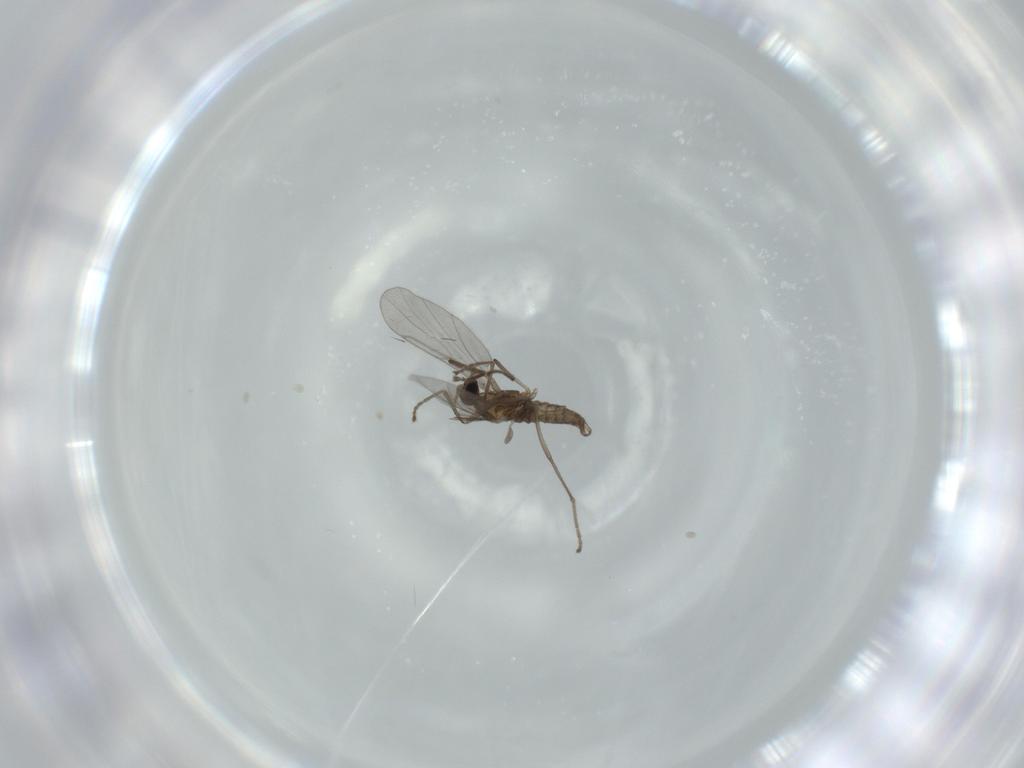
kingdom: Animalia
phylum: Arthropoda
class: Insecta
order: Diptera
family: Cecidomyiidae
